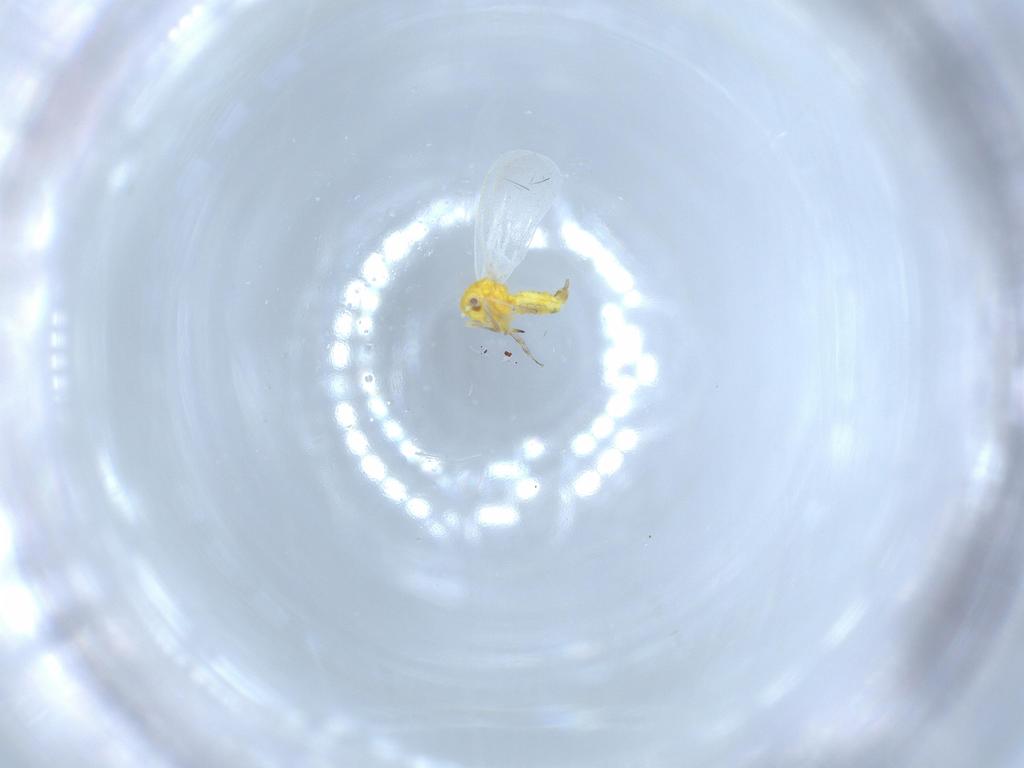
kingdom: Animalia
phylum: Arthropoda
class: Insecta
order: Hemiptera
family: Aleyrodidae
